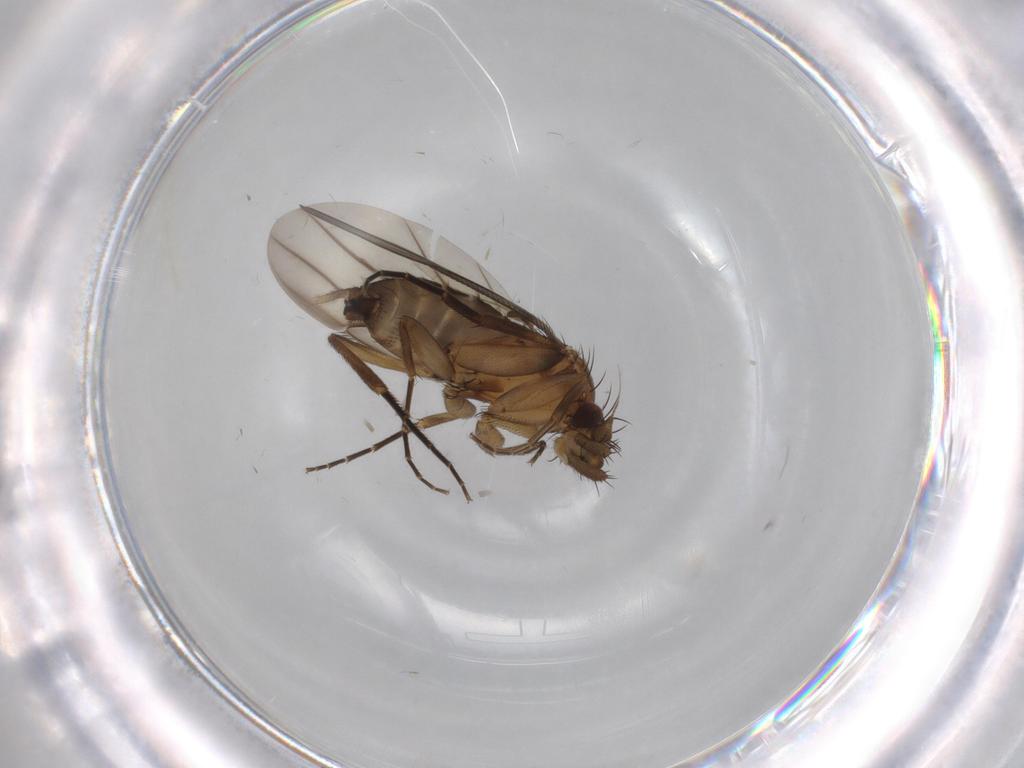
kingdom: Animalia
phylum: Arthropoda
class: Insecta
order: Diptera
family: Phoridae
